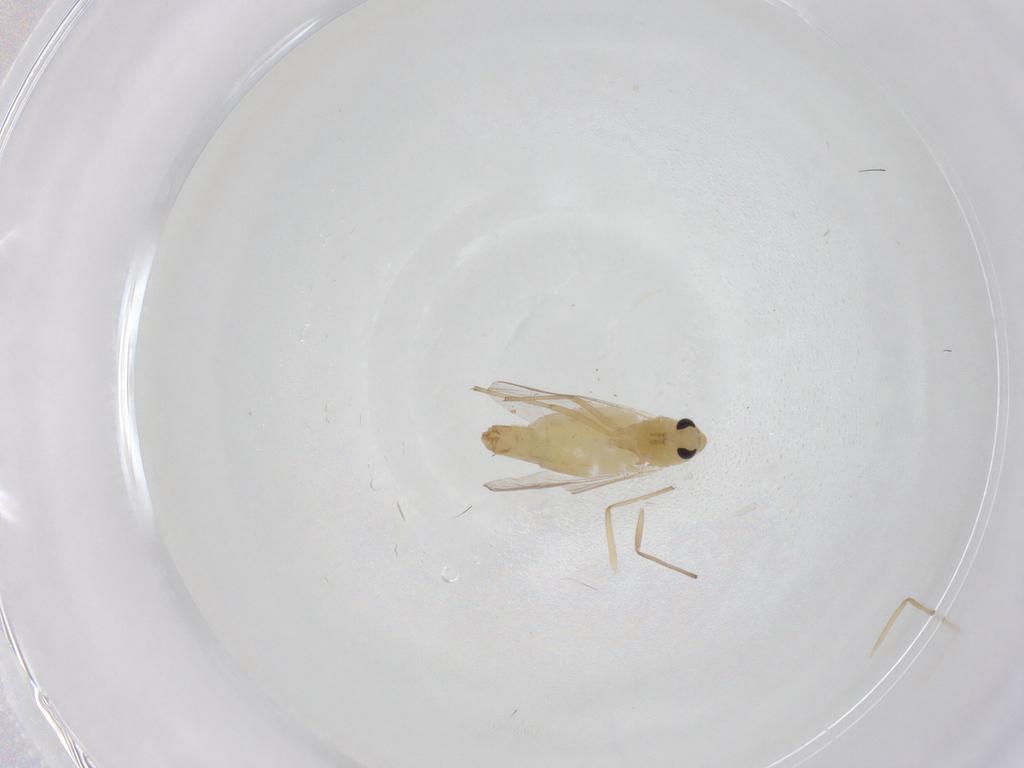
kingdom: Animalia
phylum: Arthropoda
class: Insecta
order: Diptera
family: Chironomidae
